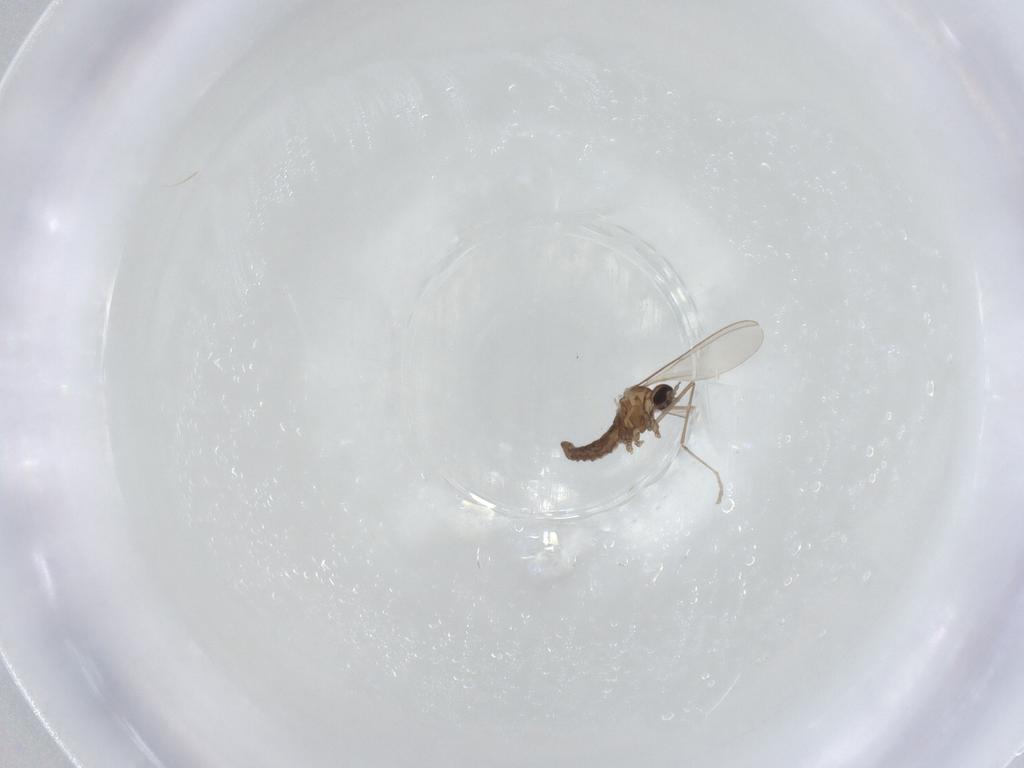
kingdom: Animalia
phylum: Arthropoda
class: Insecta
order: Diptera
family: Cecidomyiidae
